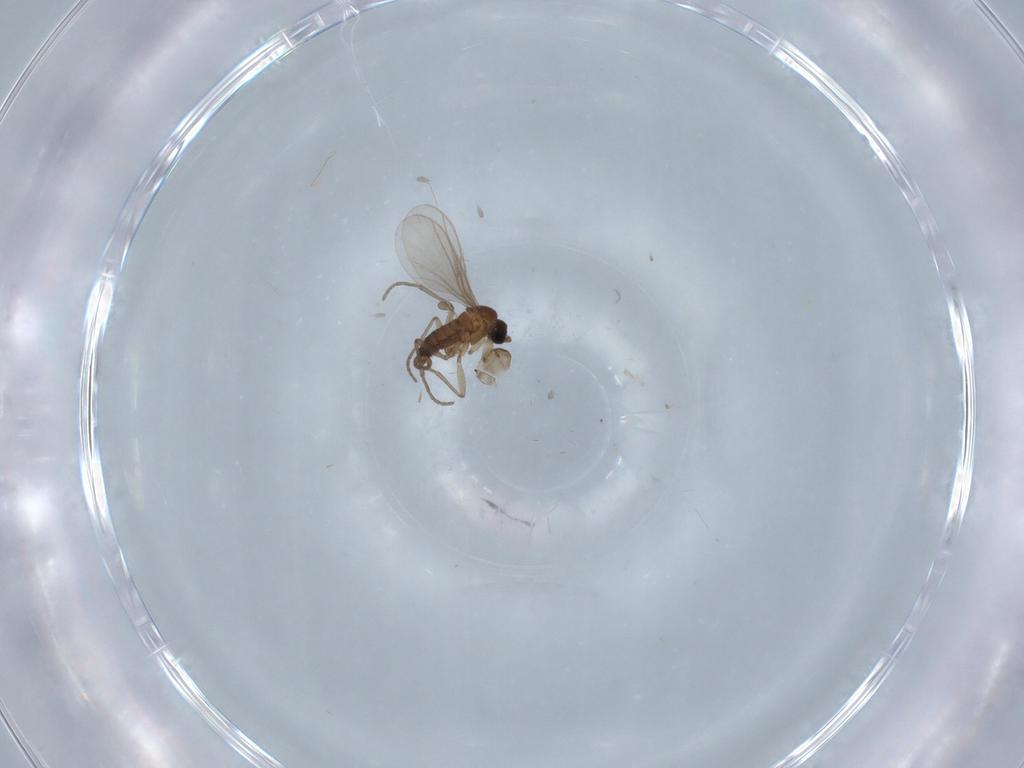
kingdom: Animalia
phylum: Arthropoda
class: Insecta
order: Diptera
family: Psychodidae
